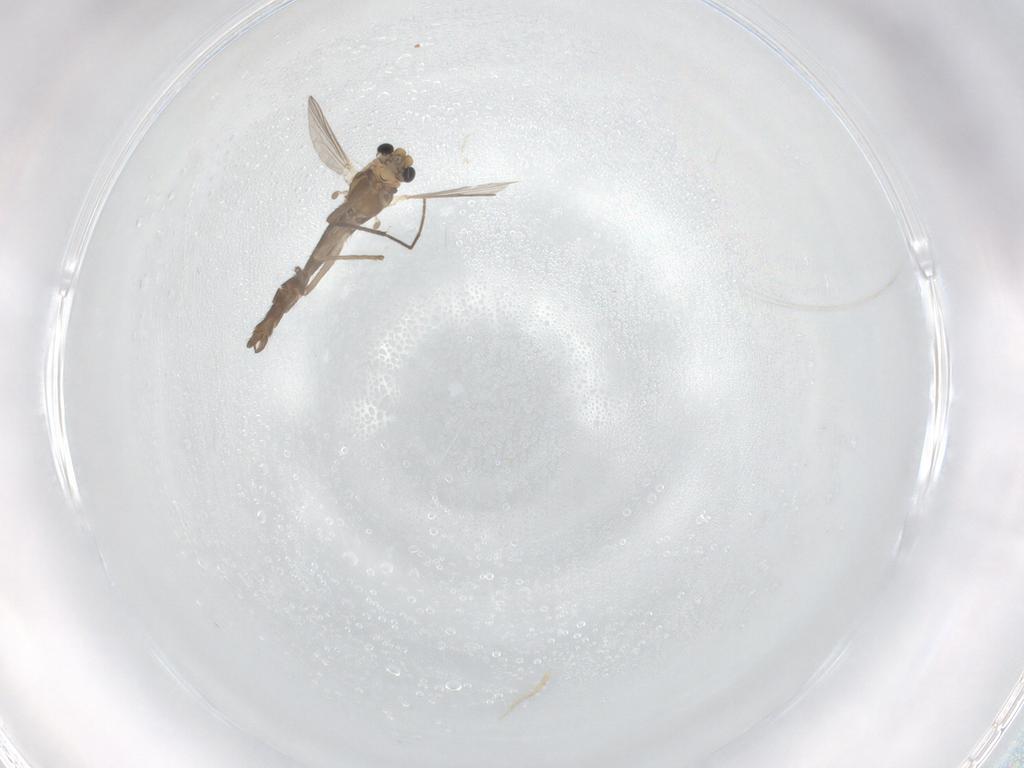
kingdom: Animalia
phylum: Arthropoda
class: Insecta
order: Diptera
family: Chironomidae
